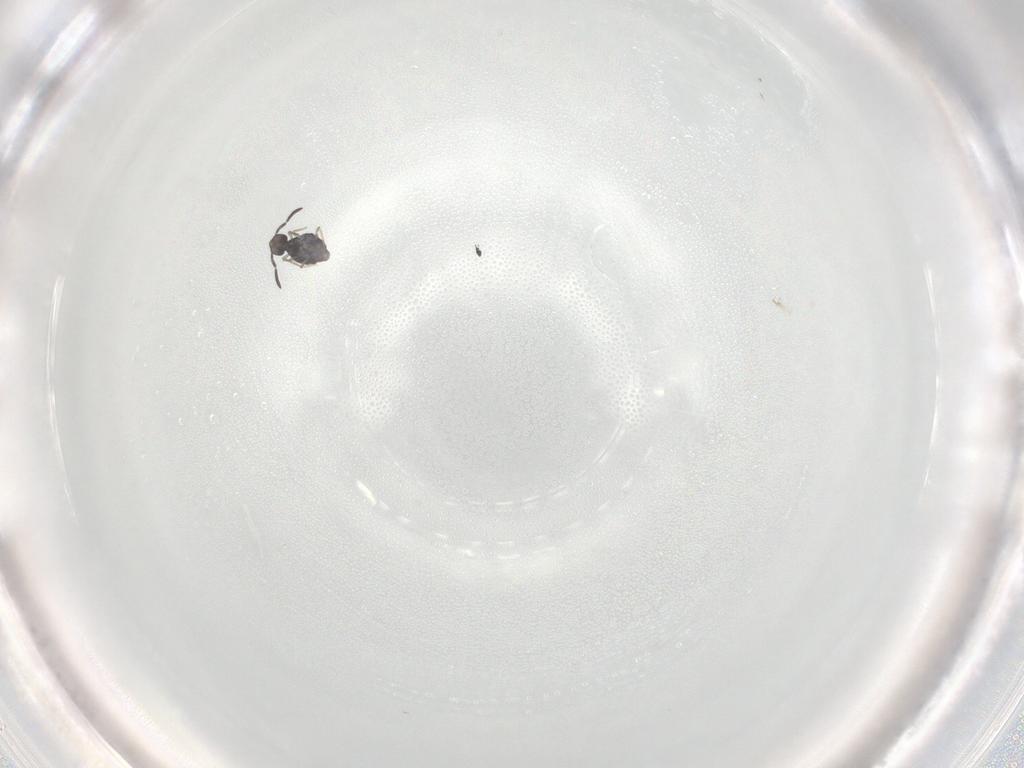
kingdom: Animalia
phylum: Arthropoda
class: Collembola
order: Symphypleona
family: Katiannidae
